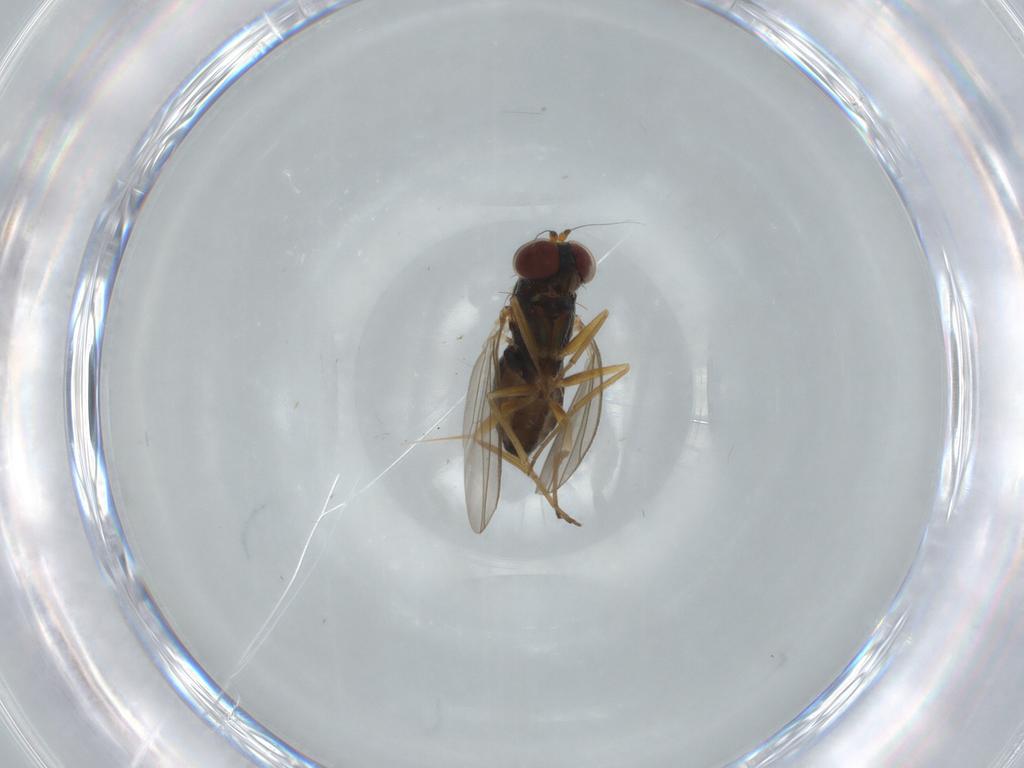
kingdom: Animalia
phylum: Arthropoda
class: Insecta
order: Diptera
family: Dolichopodidae
